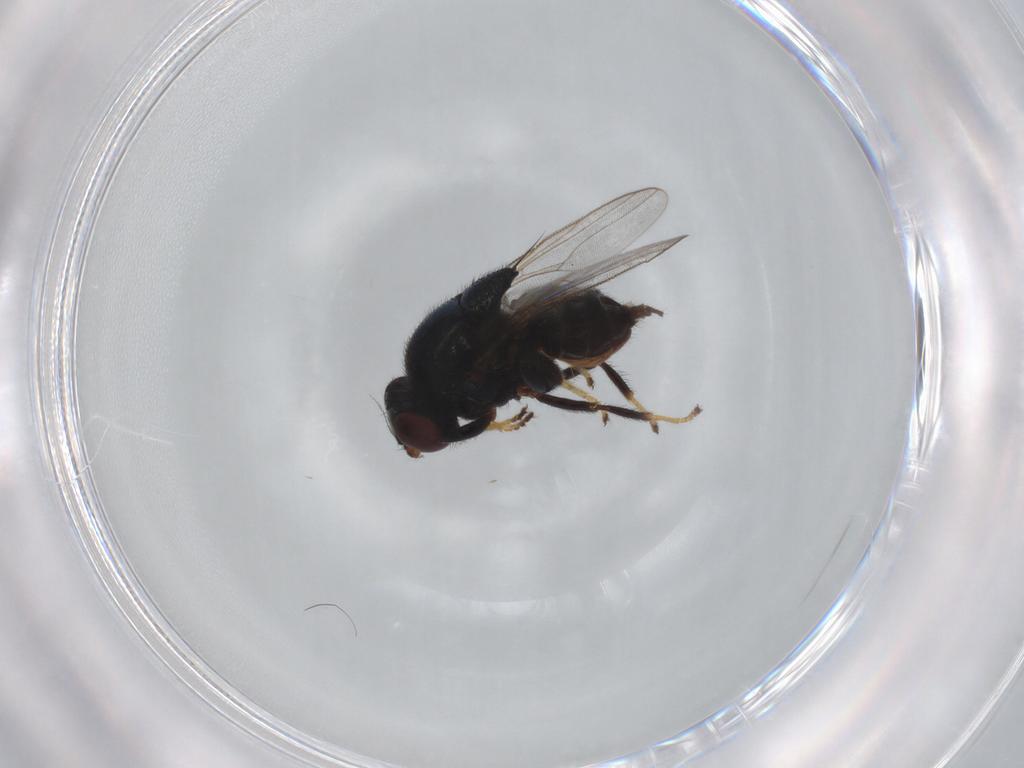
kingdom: Animalia
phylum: Arthropoda
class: Insecta
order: Diptera
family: Chloropidae
